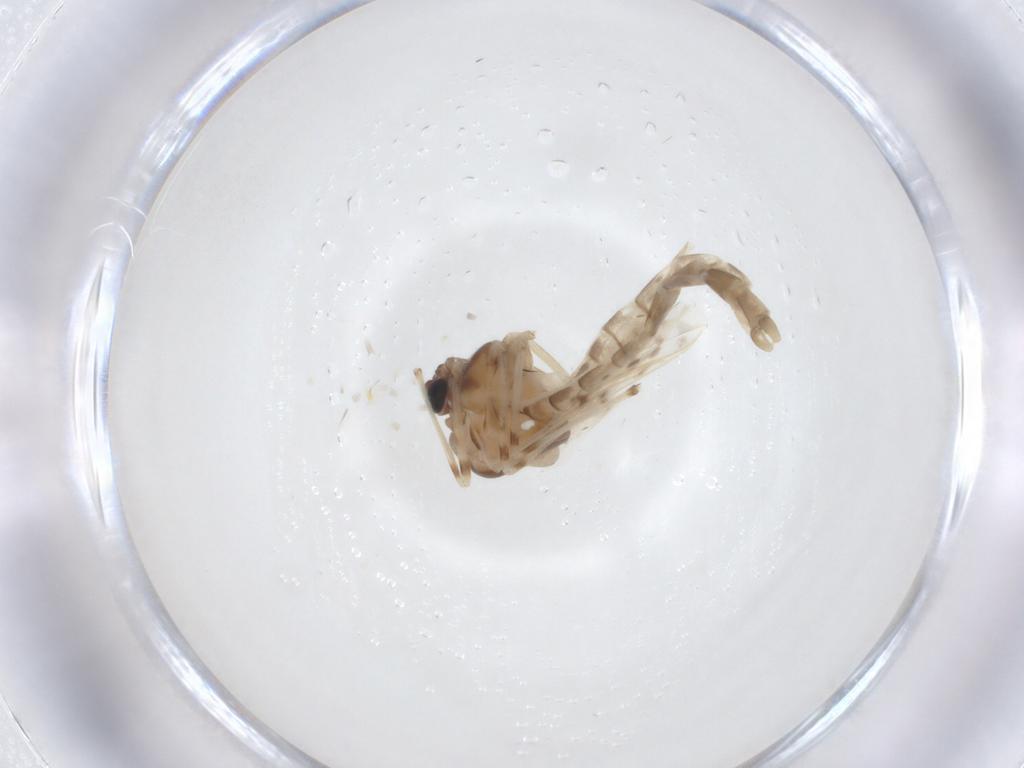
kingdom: Animalia
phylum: Arthropoda
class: Insecta
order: Diptera
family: Chironomidae
